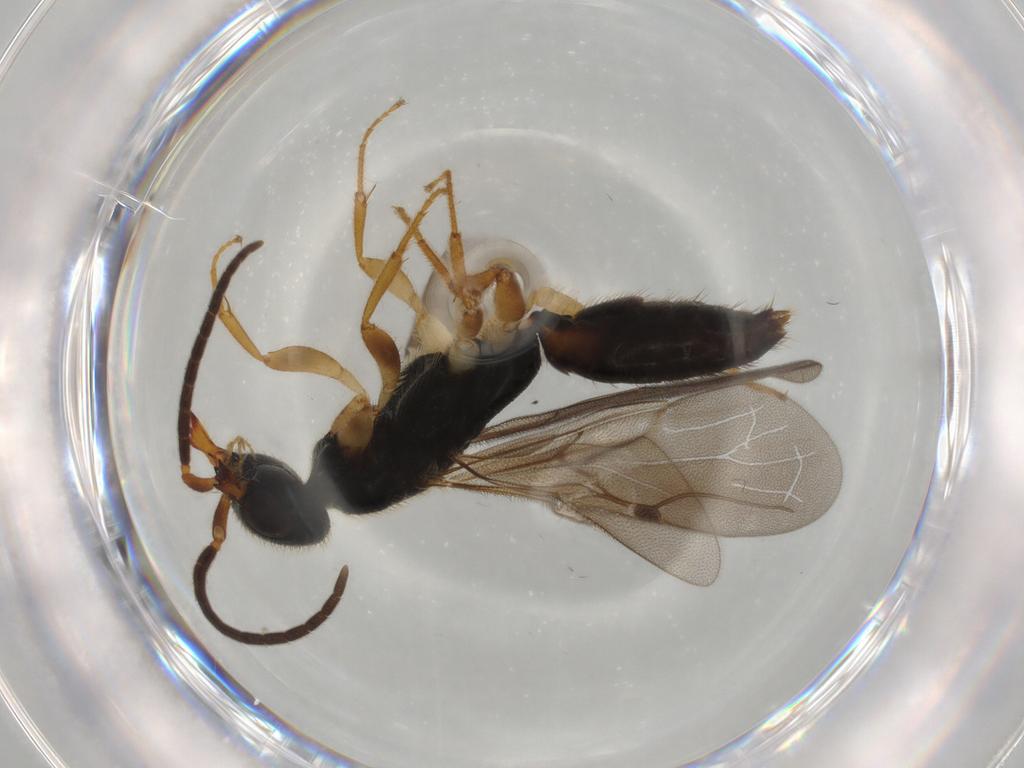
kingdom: Animalia
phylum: Arthropoda
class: Insecta
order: Hymenoptera
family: Bethylidae
